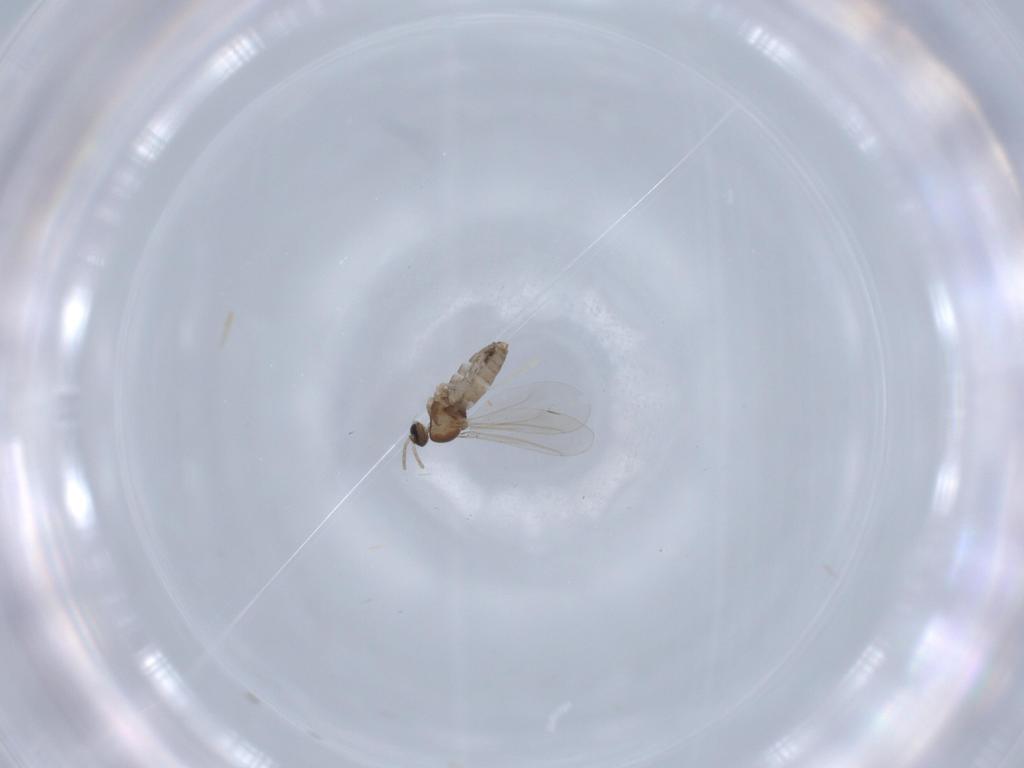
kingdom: Animalia
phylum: Arthropoda
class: Insecta
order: Diptera
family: Cecidomyiidae
